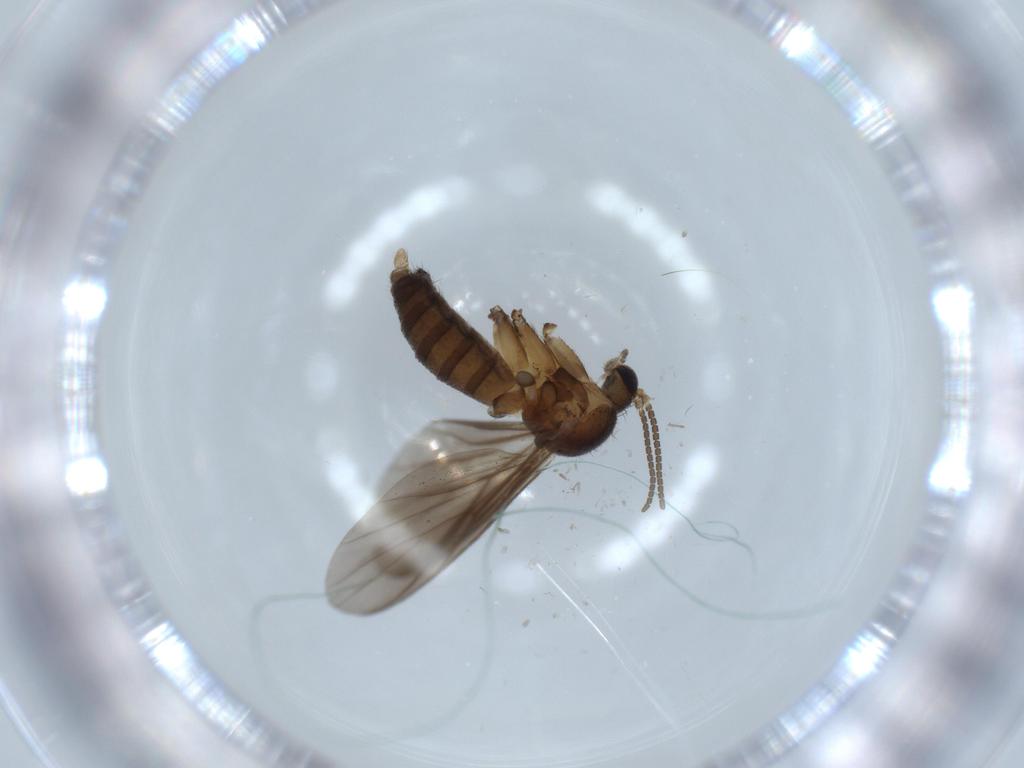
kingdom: Animalia
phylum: Arthropoda
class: Insecta
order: Diptera
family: Mycetophilidae
